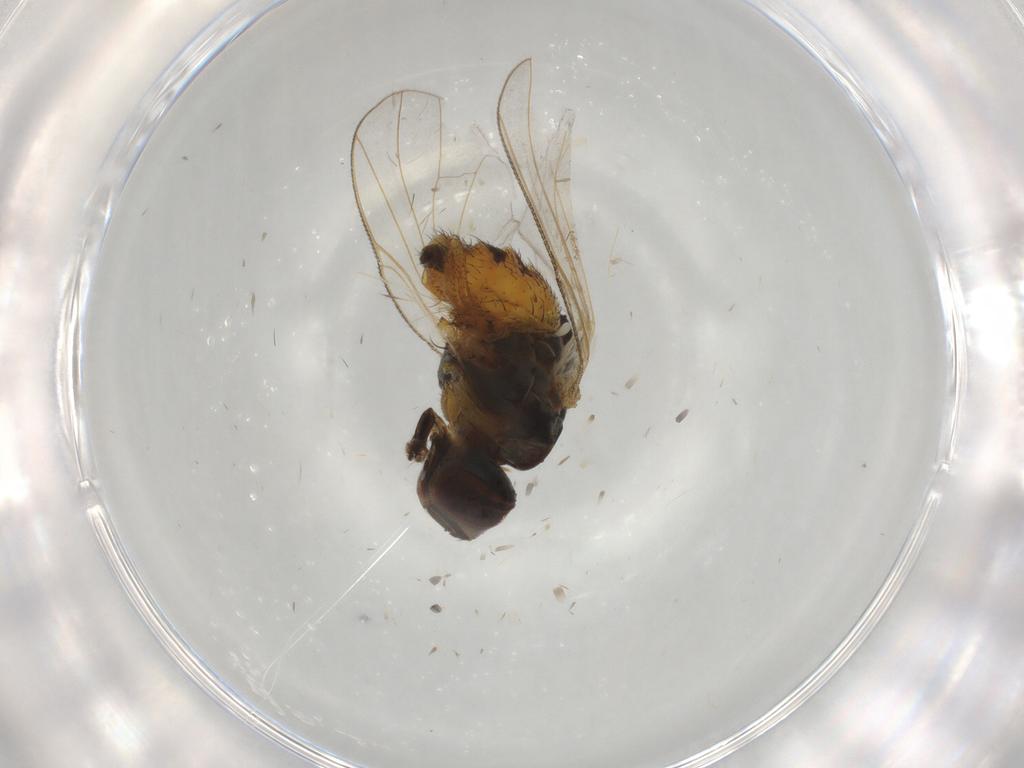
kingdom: Animalia
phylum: Arthropoda
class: Insecta
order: Diptera
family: Muscidae
